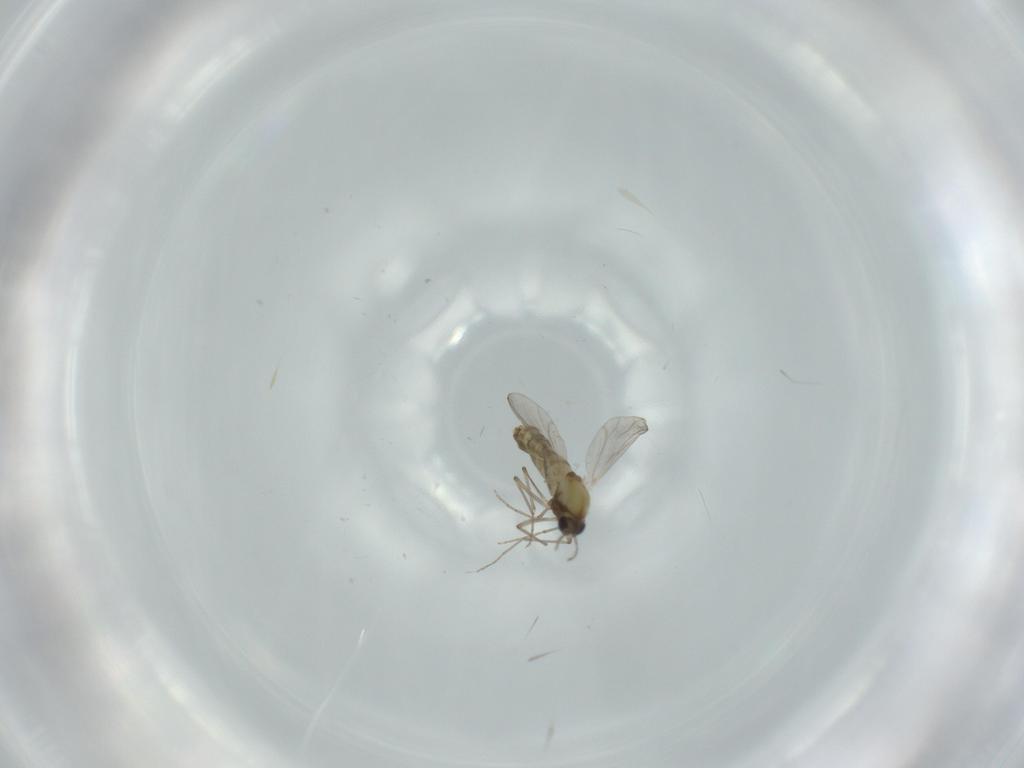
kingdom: Animalia
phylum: Arthropoda
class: Insecta
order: Diptera
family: Chironomidae
